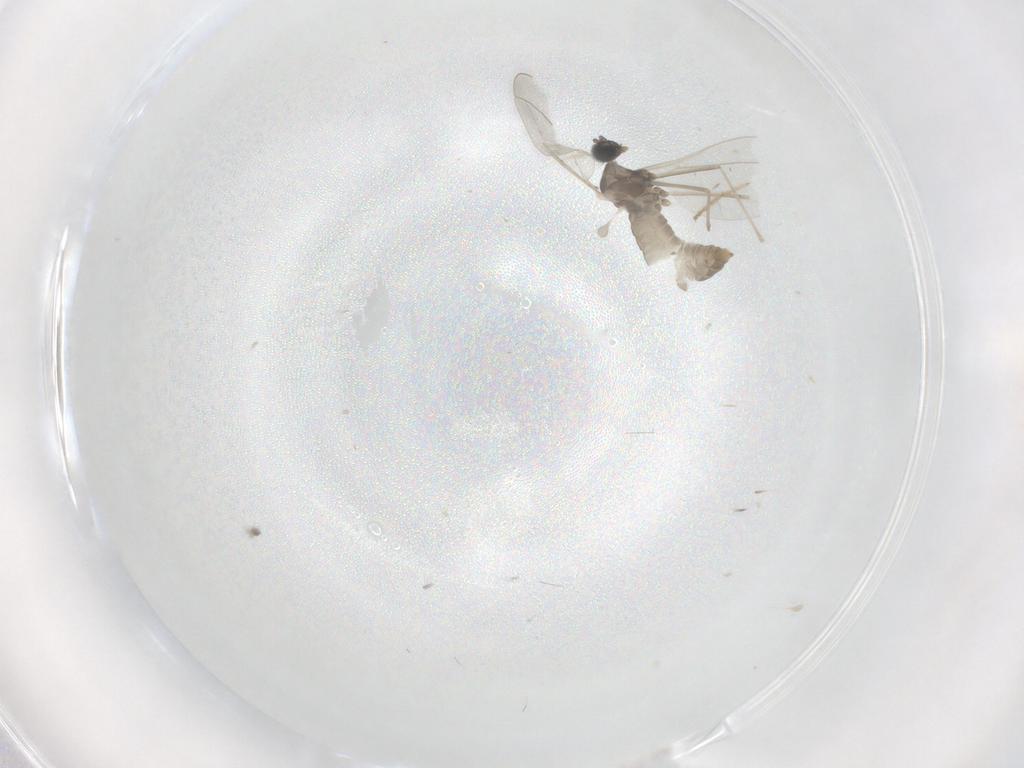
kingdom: Animalia
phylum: Arthropoda
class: Insecta
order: Diptera
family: Cecidomyiidae
